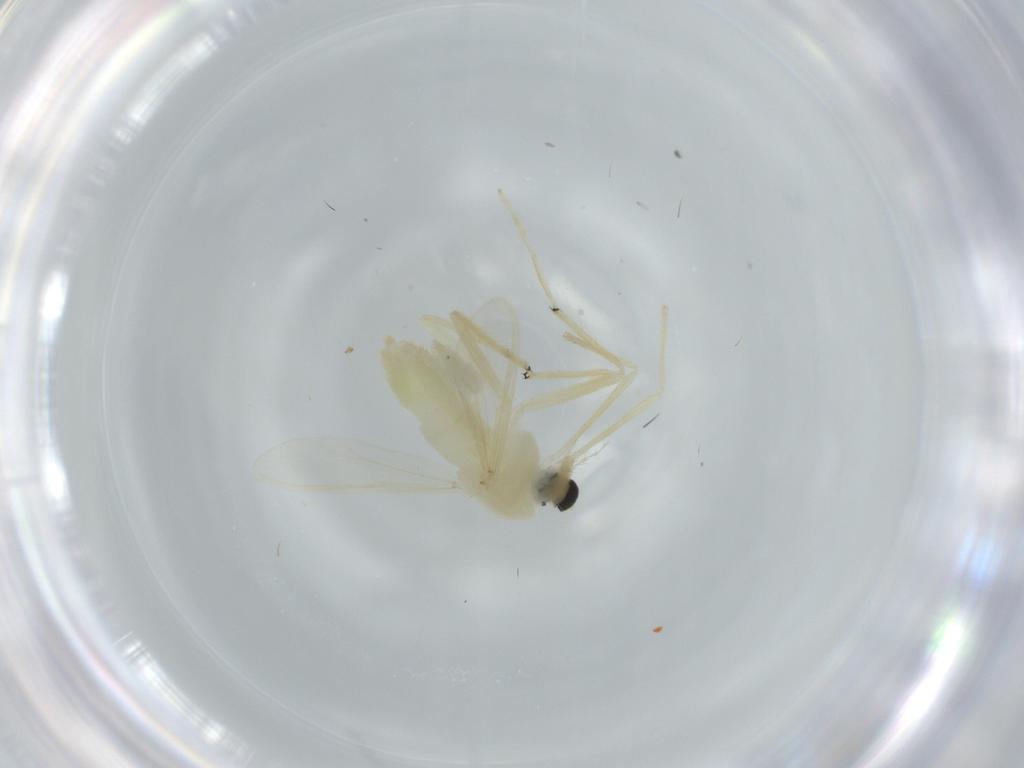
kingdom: Animalia
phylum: Arthropoda
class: Insecta
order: Diptera
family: Chironomidae
